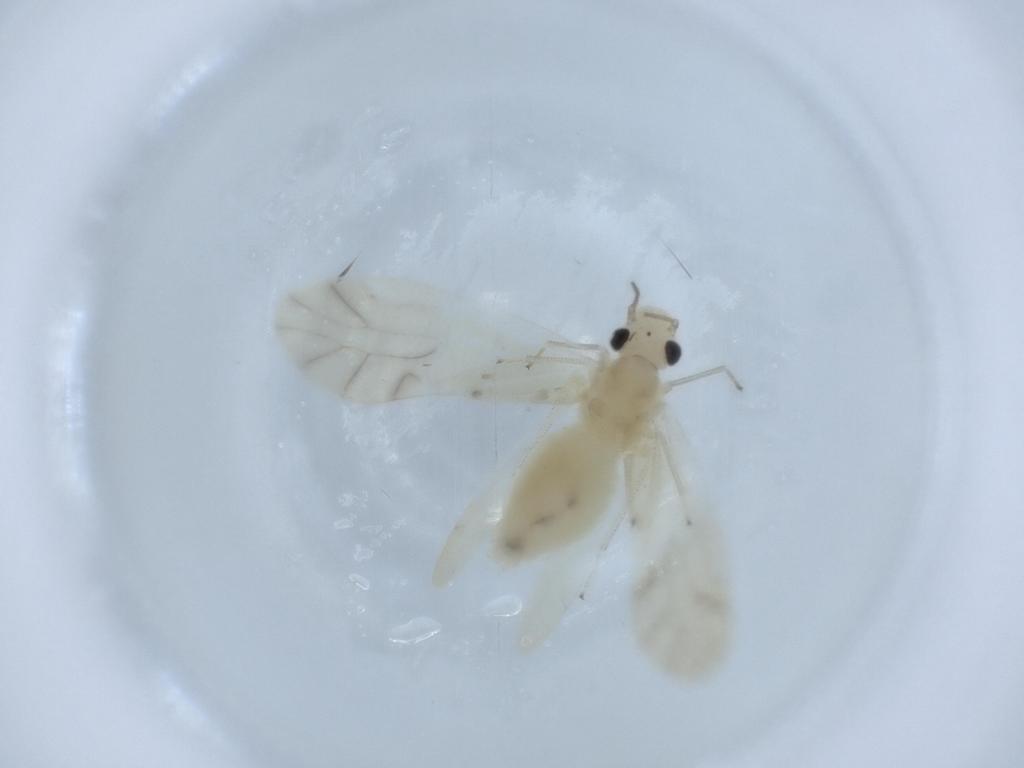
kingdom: Animalia
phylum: Arthropoda
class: Insecta
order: Psocodea
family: Caeciliusidae
